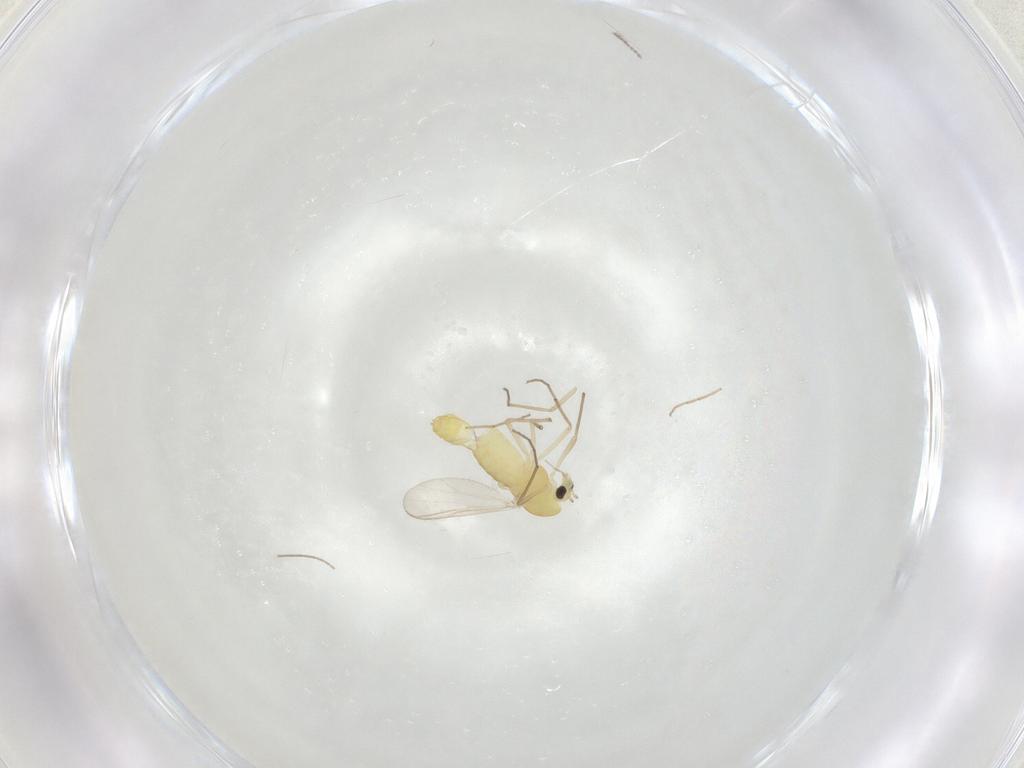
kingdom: Animalia
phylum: Arthropoda
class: Insecta
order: Diptera
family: Chironomidae
